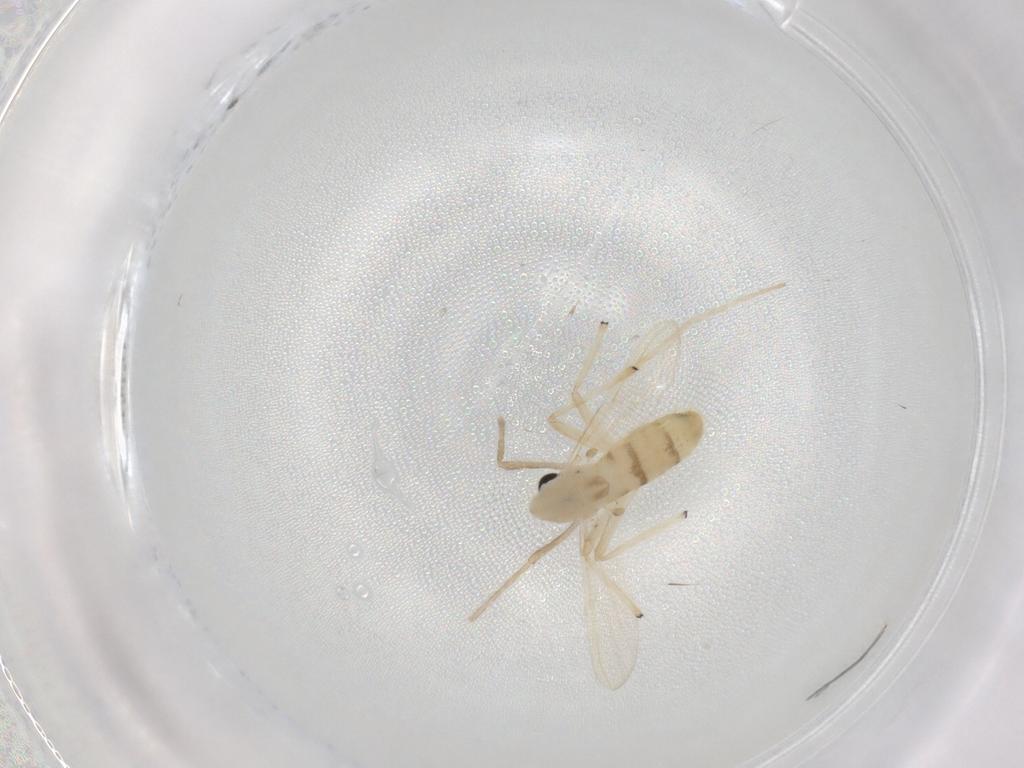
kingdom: Animalia
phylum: Arthropoda
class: Insecta
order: Diptera
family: Chironomidae
